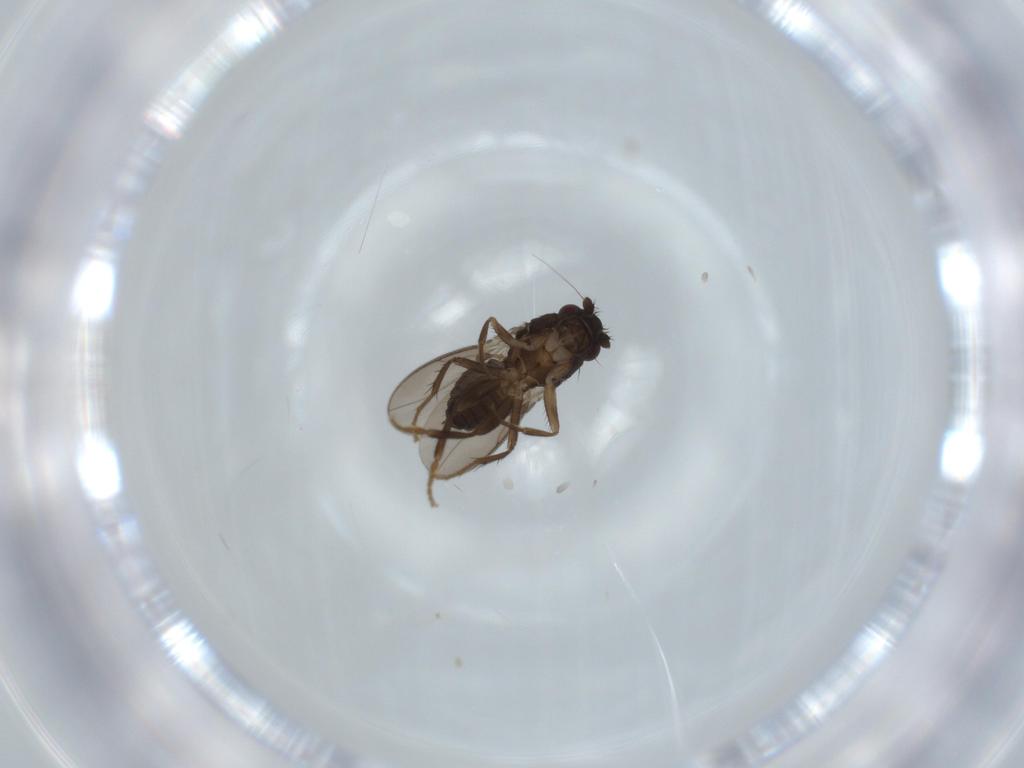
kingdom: Animalia
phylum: Arthropoda
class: Insecta
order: Diptera
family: Sphaeroceridae
